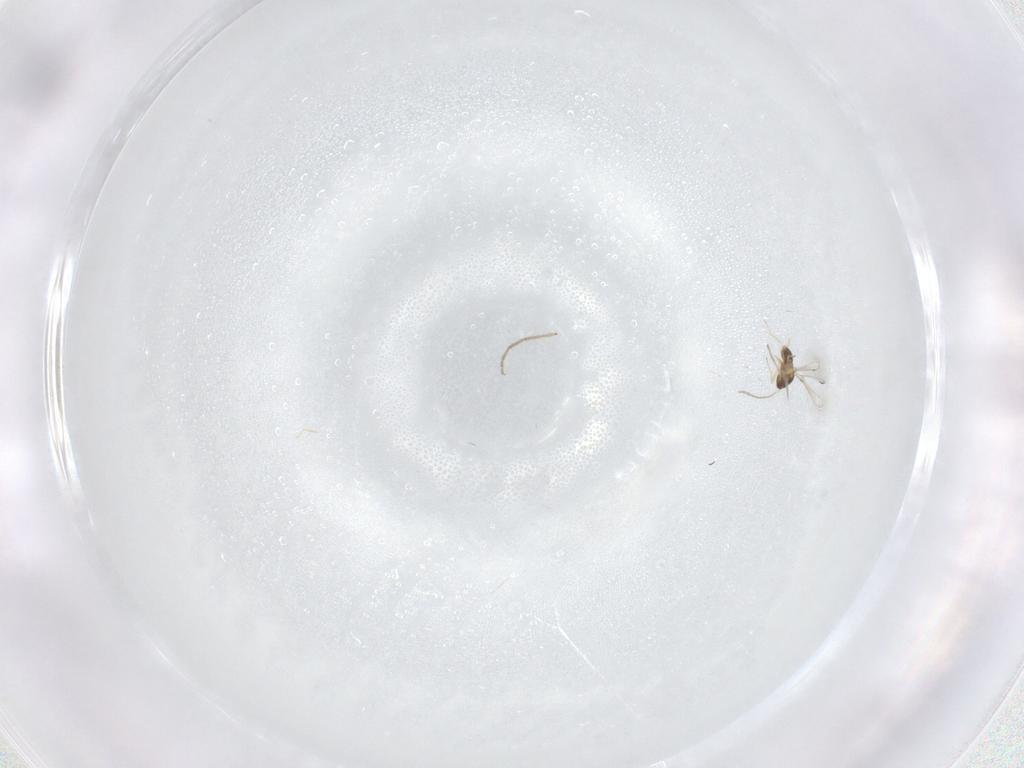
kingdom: Animalia
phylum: Arthropoda
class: Insecta
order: Hymenoptera
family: Mymaridae
